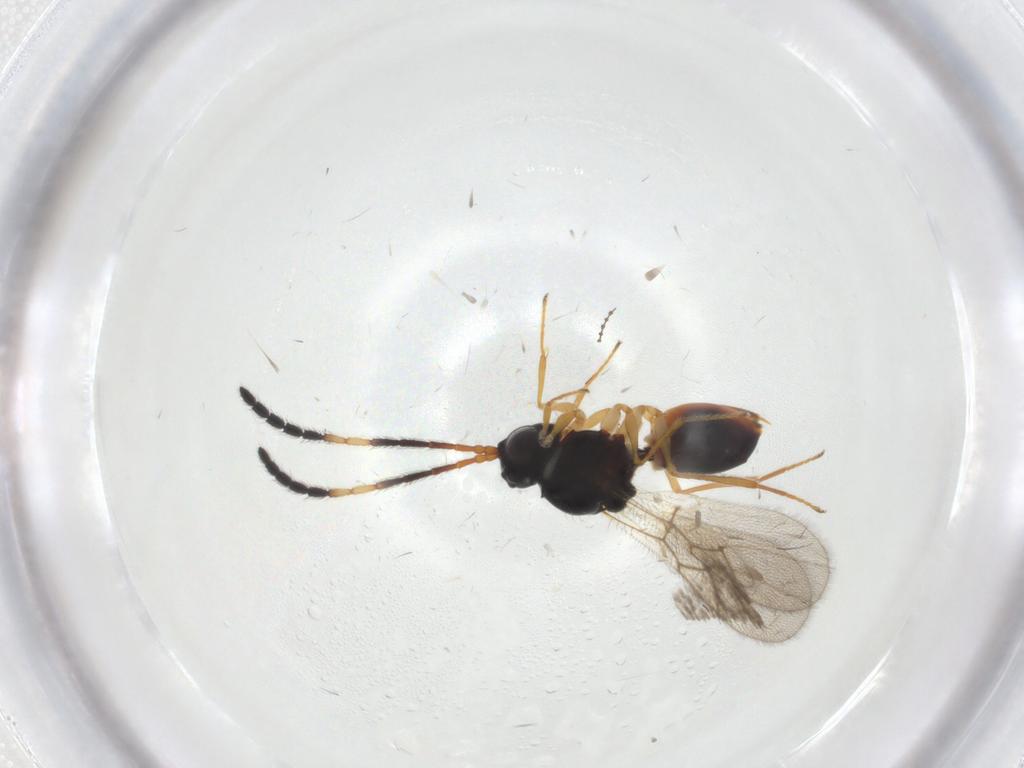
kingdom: Animalia
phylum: Arthropoda
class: Insecta
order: Hymenoptera
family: Figitidae
